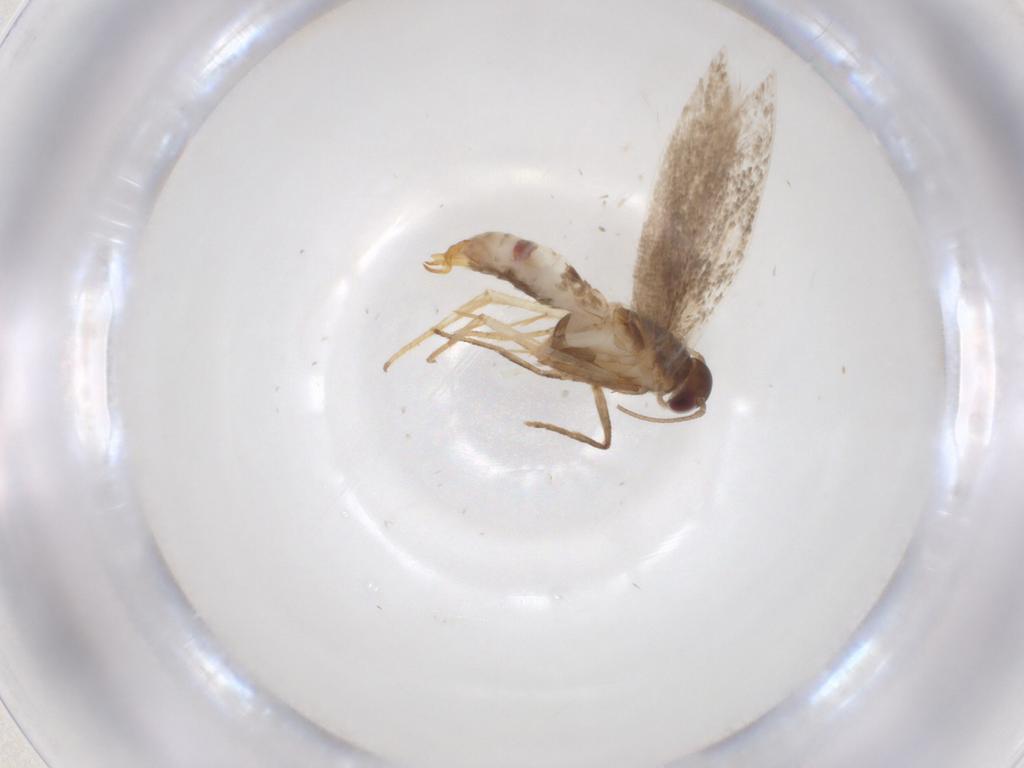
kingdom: Animalia
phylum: Arthropoda
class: Insecta
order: Lepidoptera
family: Gelechiidae
